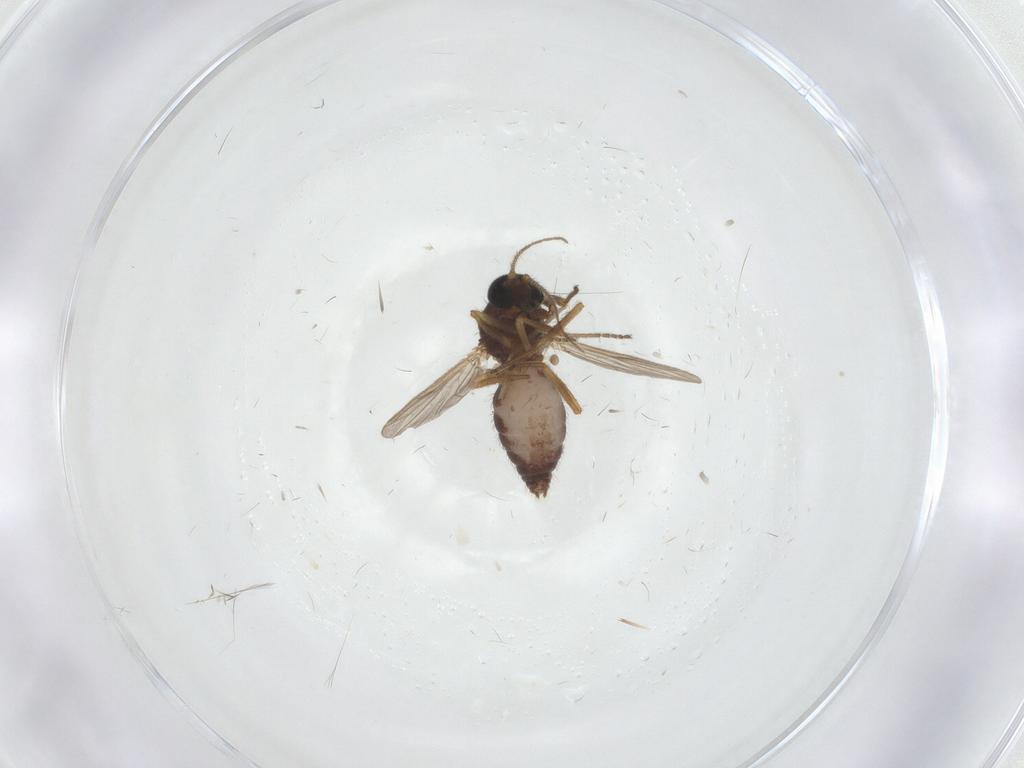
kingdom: Animalia
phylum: Arthropoda
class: Insecta
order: Diptera
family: Ceratopogonidae
